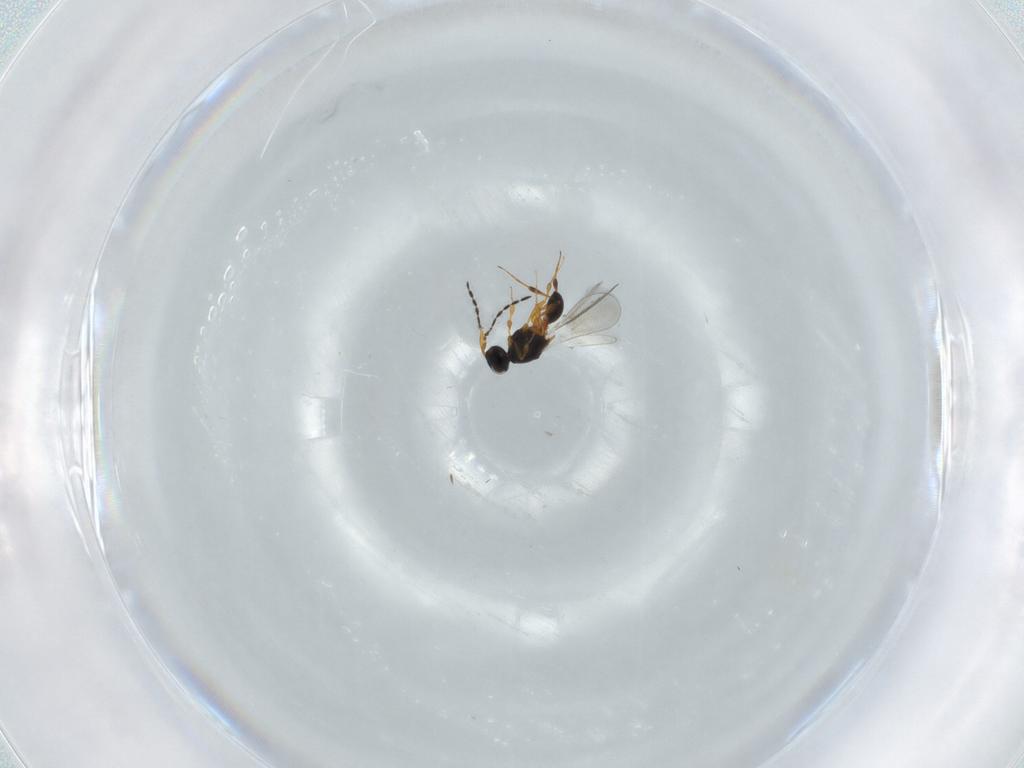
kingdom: Animalia
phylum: Arthropoda
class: Insecta
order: Hymenoptera
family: Platygastridae
